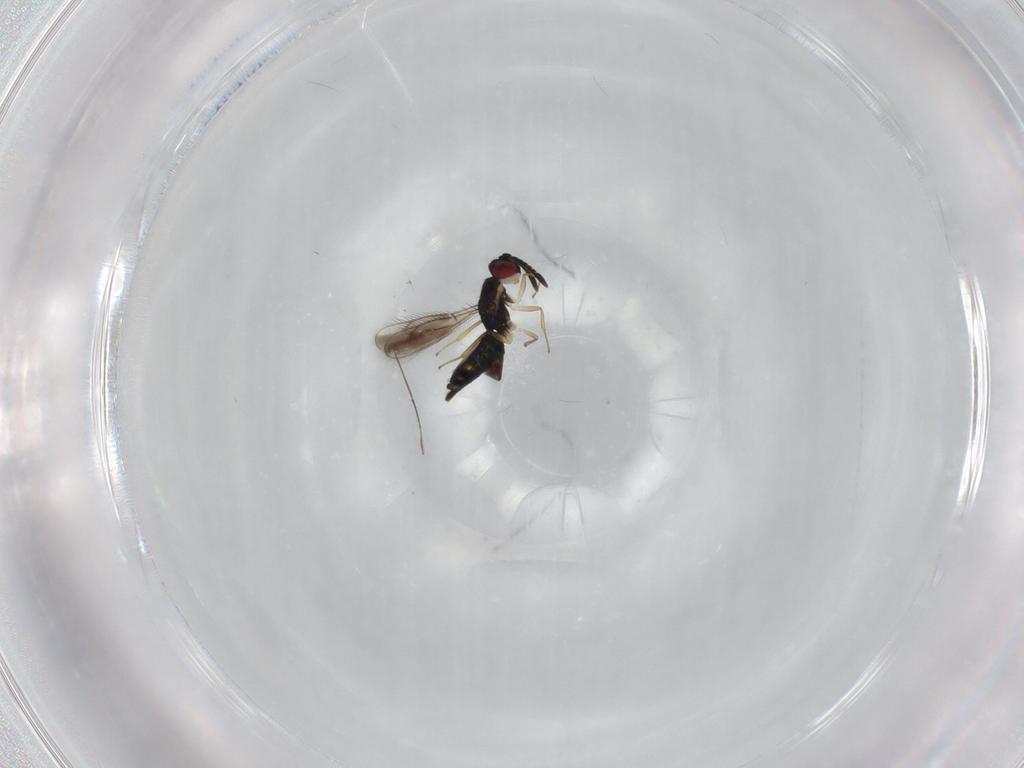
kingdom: Animalia
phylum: Arthropoda
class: Insecta
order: Hymenoptera
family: Pteromalidae
